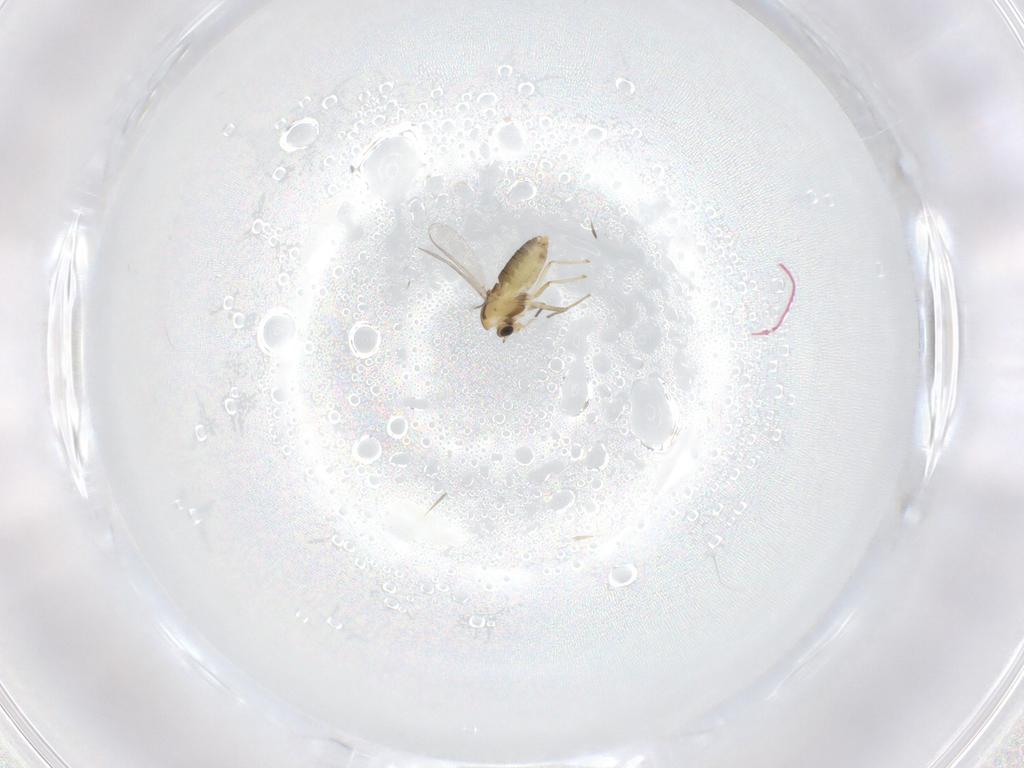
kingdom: Animalia
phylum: Arthropoda
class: Insecta
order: Diptera
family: Chironomidae
